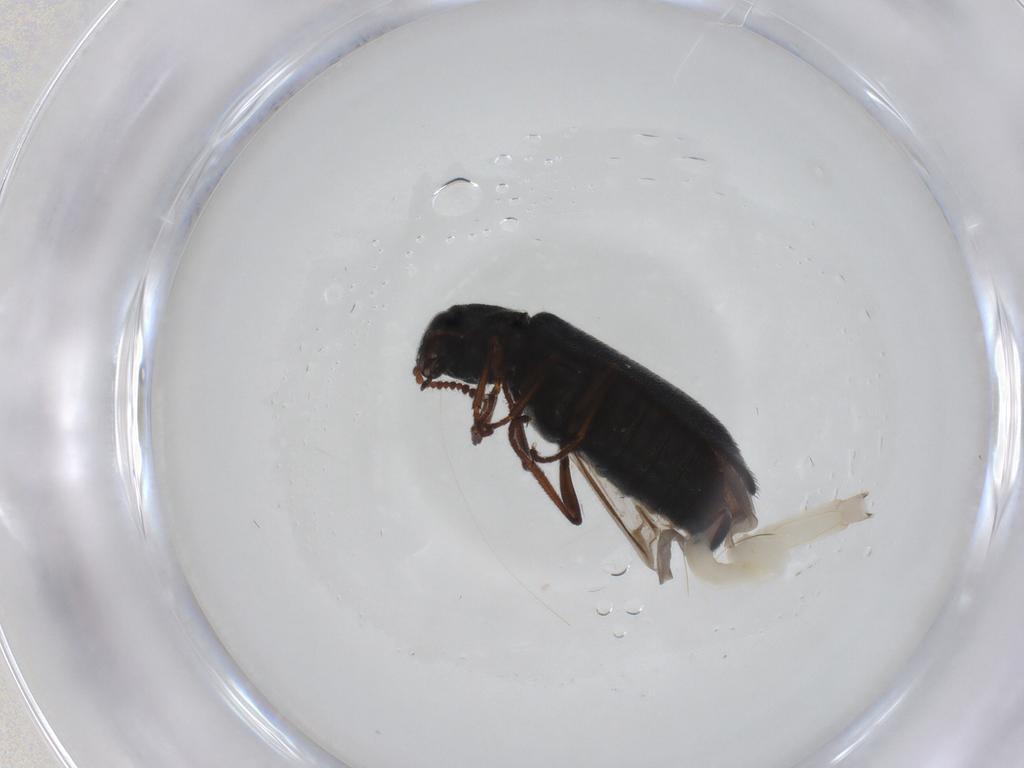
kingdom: Animalia
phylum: Arthropoda
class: Insecta
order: Coleoptera
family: Melyridae
